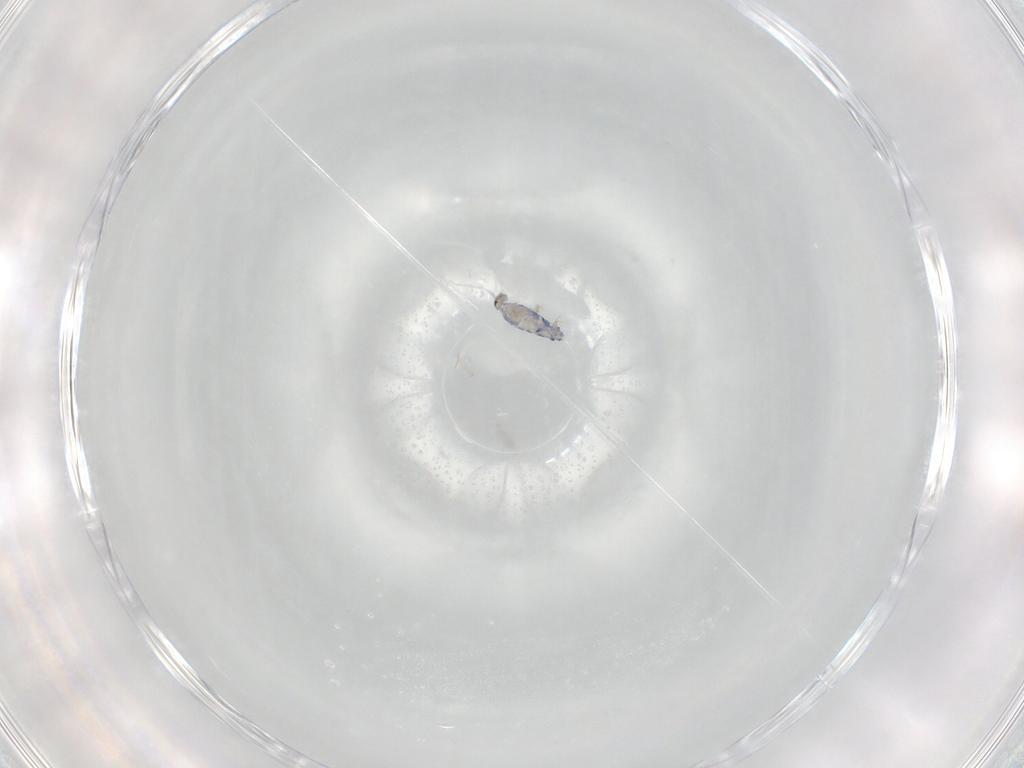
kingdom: Animalia
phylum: Arthropoda
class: Collembola
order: Entomobryomorpha
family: Entomobryidae
